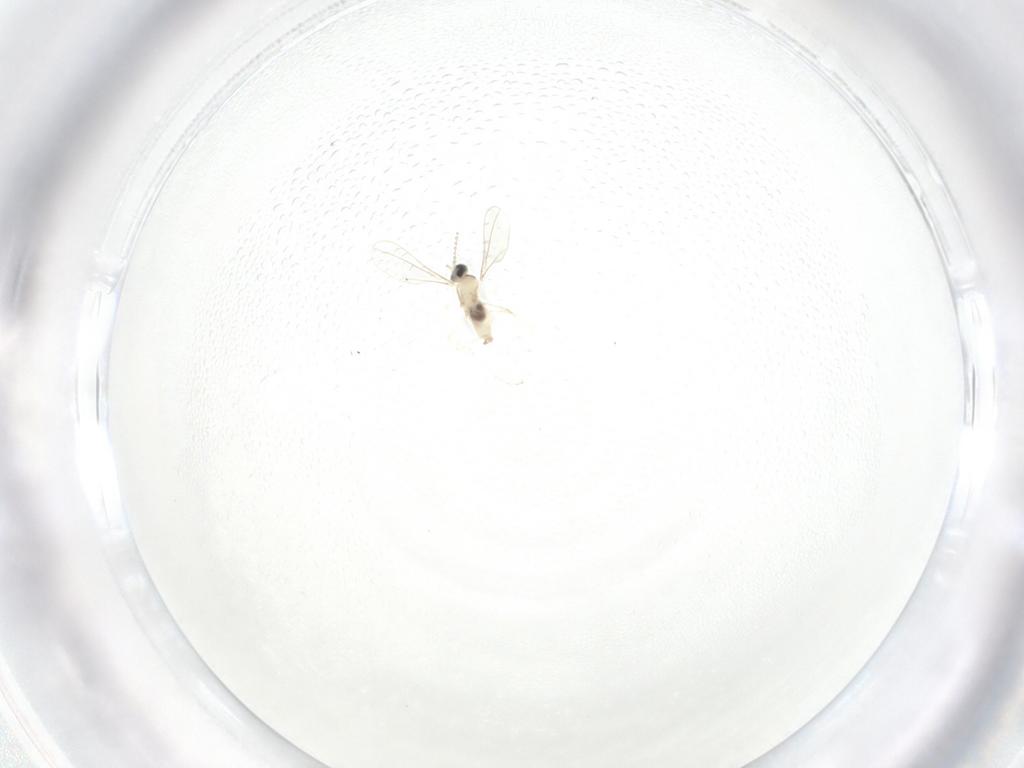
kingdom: Animalia
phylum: Arthropoda
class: Insecta
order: Diptera
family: Cecidomyiidae
